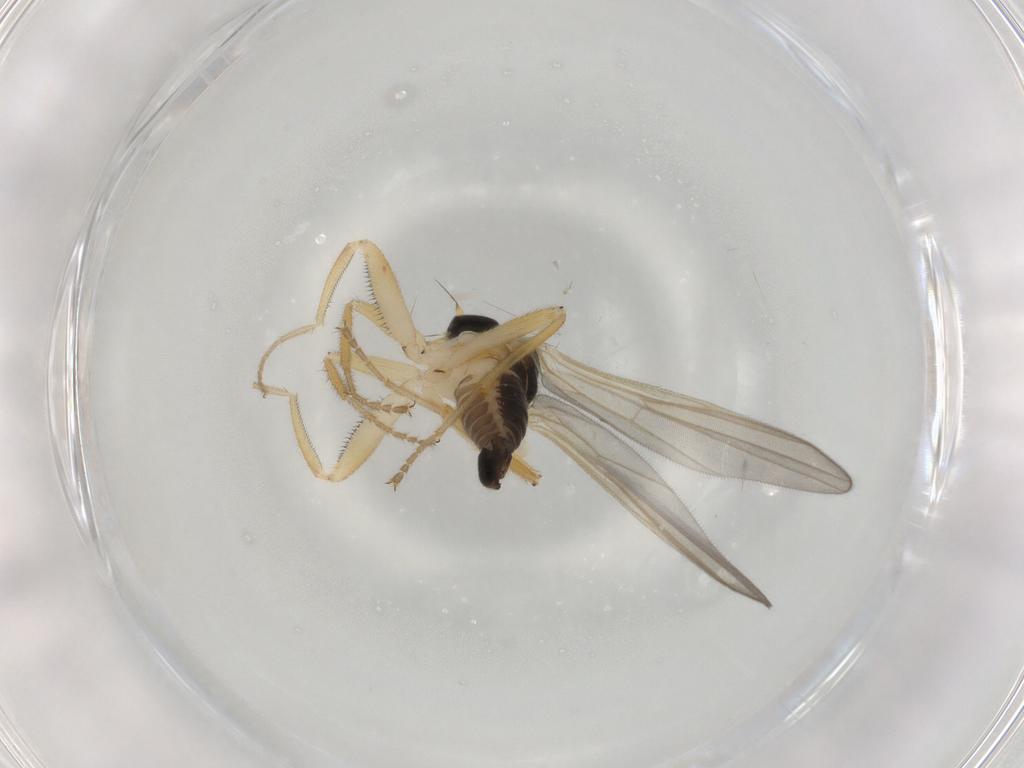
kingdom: Animalia
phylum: Arthropoda
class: Insecta
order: Diptera
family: Hybotidae
